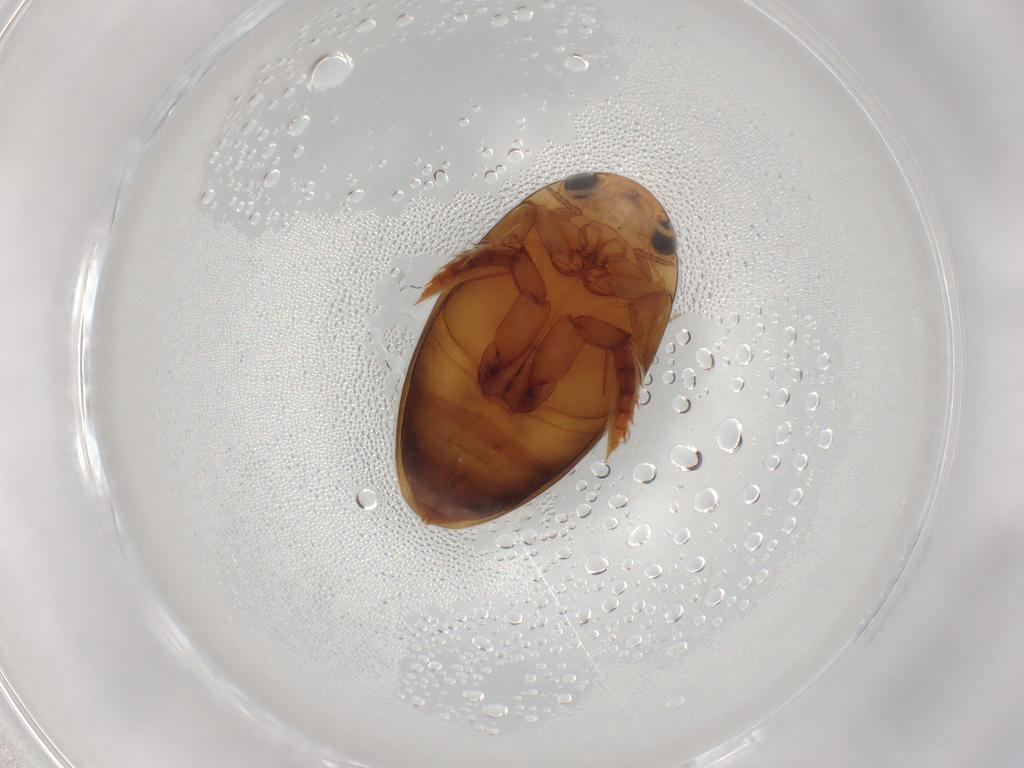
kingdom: Animalia
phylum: Arthropoda
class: Insecta
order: Coleoptera
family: Dytiscidae
